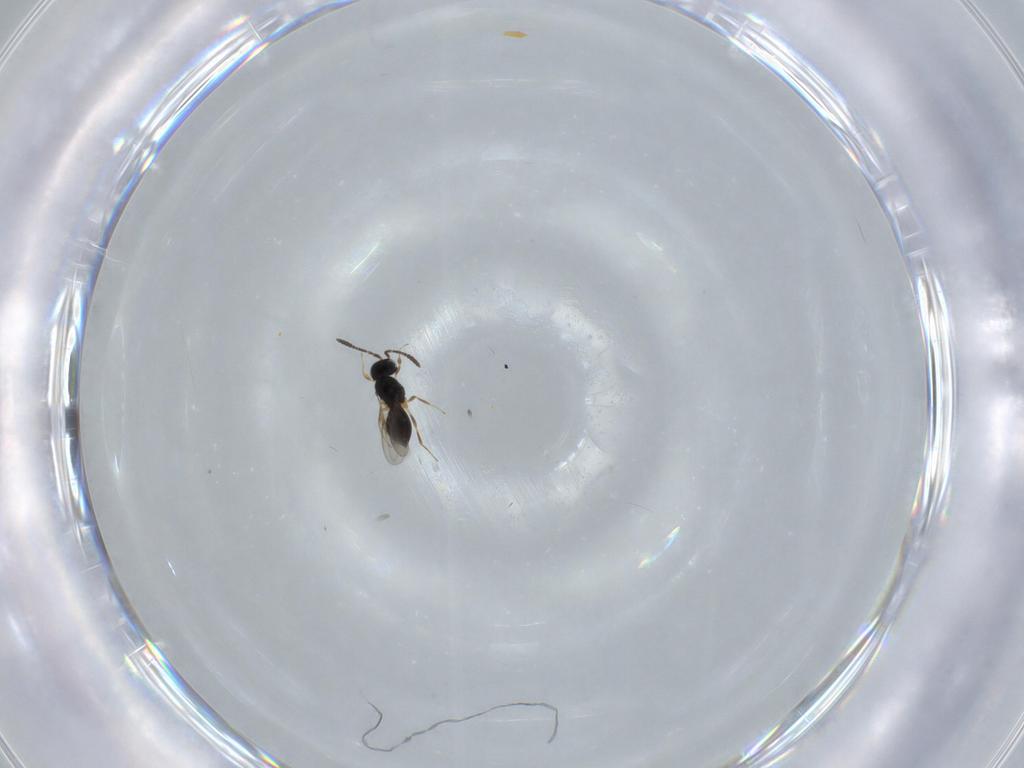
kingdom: Animalia
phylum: Arthropoda
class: Insecta
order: Hymenoptera
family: Scelionidae
